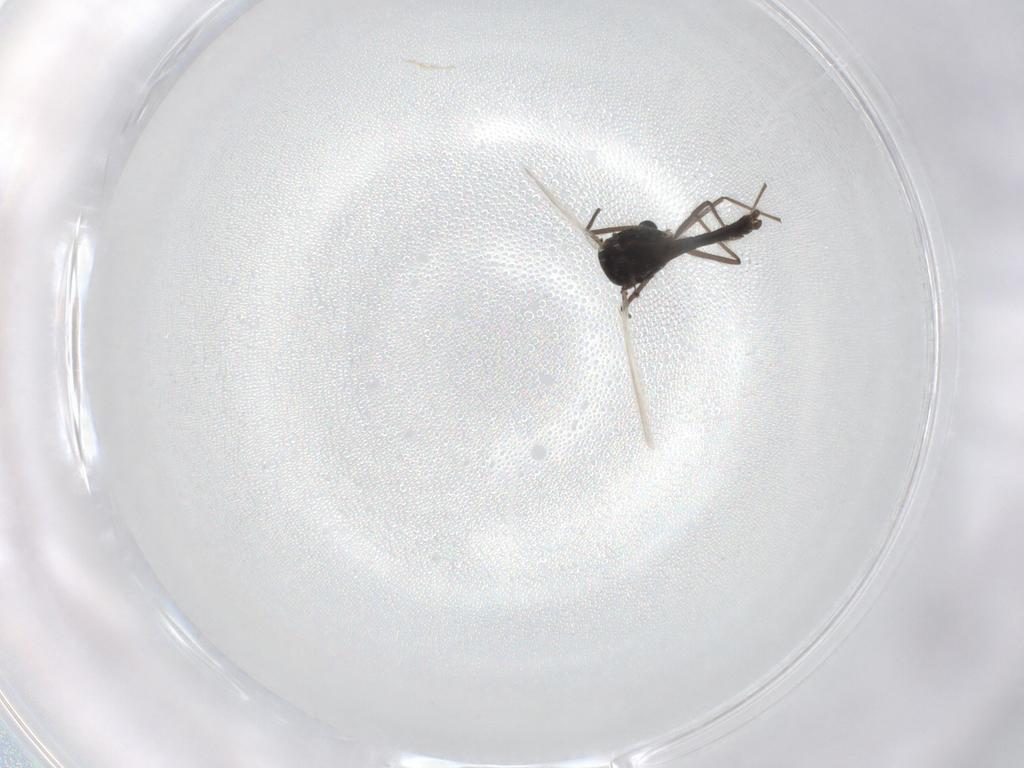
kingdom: Animalia
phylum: Arthropoda
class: Insecta
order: Diptera
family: Chironomidae
